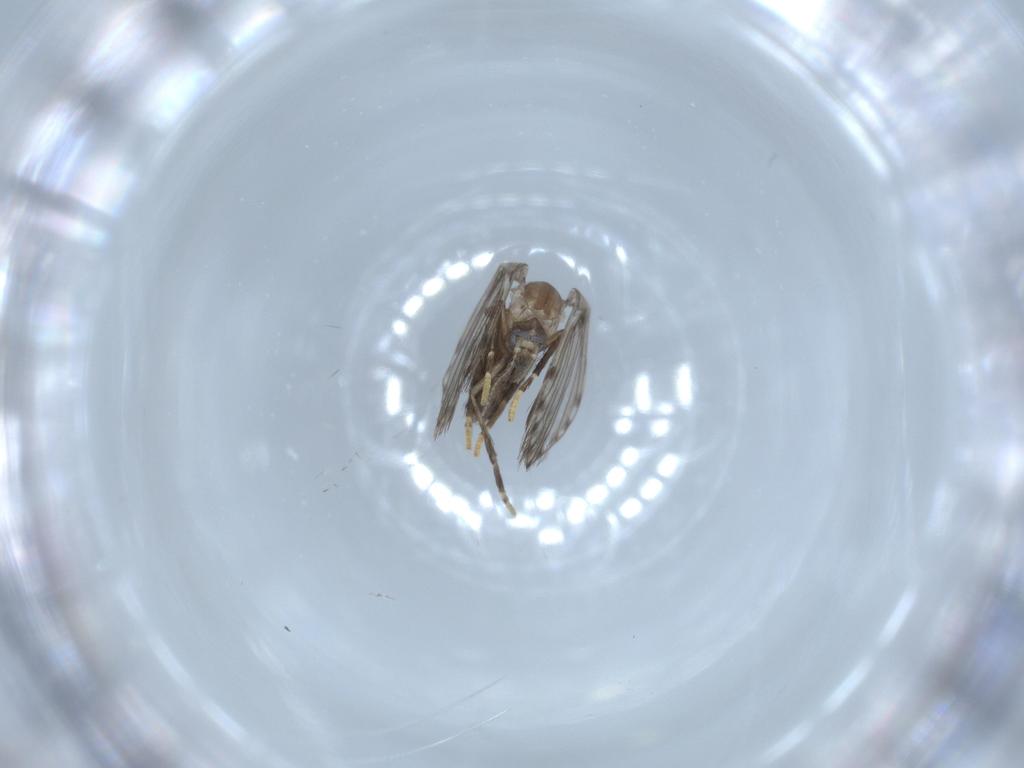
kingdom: Animalia
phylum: Arthropoda
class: Insecta
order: Diptera
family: Psychodidae
